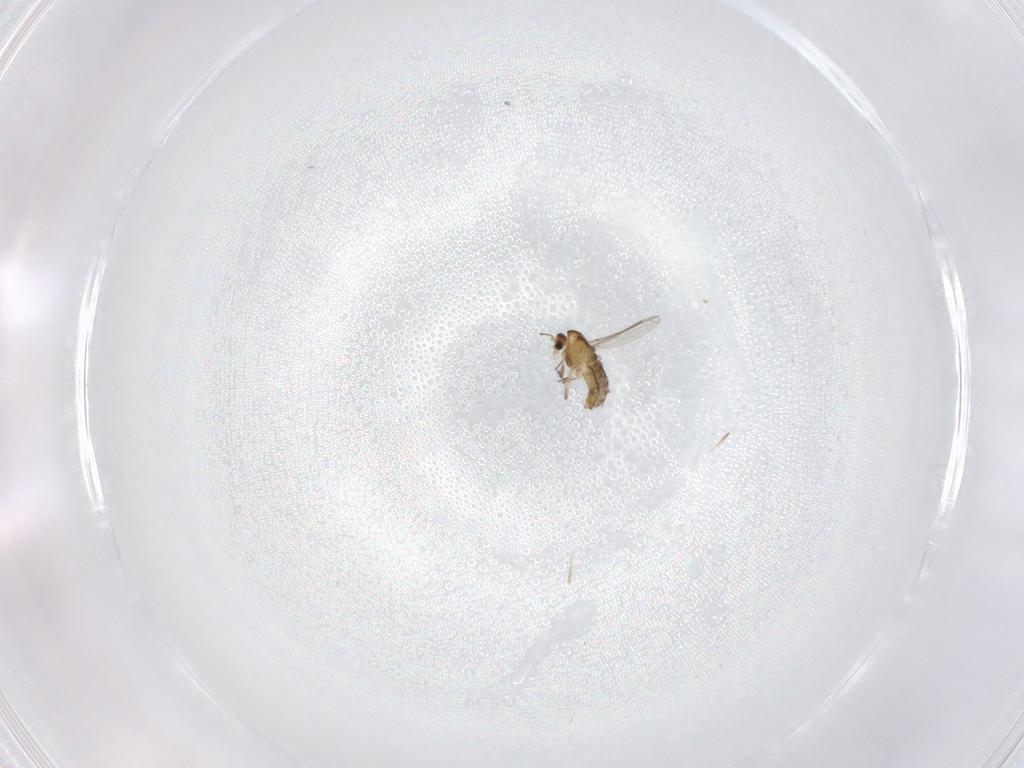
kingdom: Animalia
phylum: Arthropoda
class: Insecta
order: Diptera
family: Chironomidae
